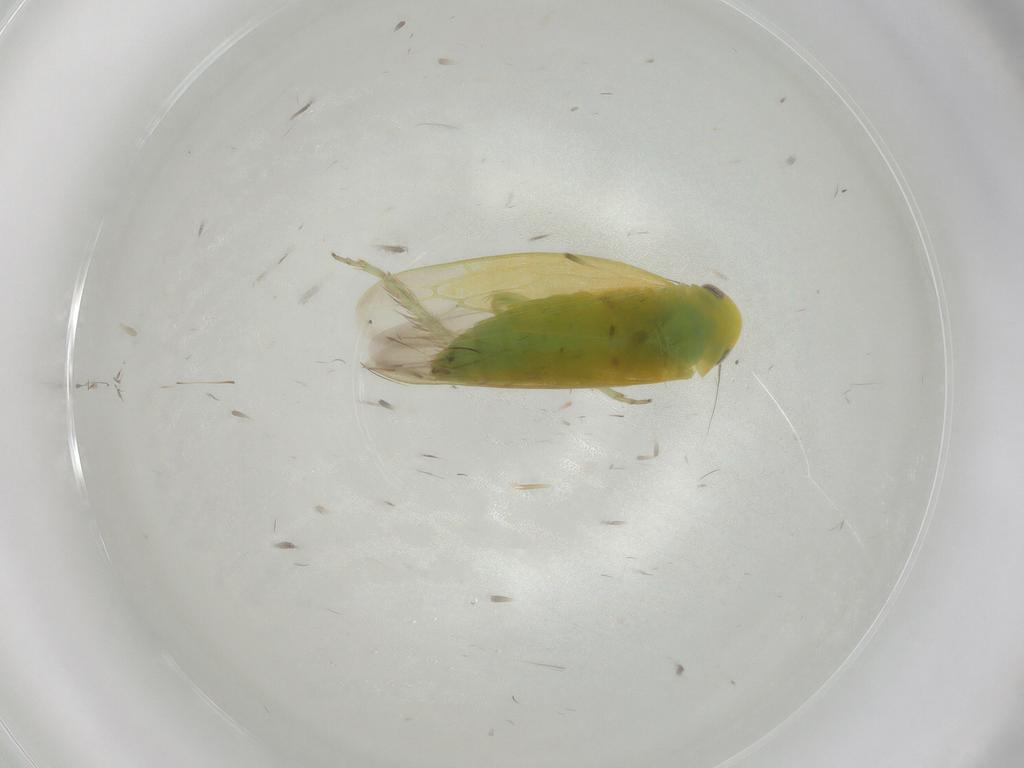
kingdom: Animalia
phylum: Arthropoda
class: Insecta
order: Hemiptera
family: Cicadellidae
